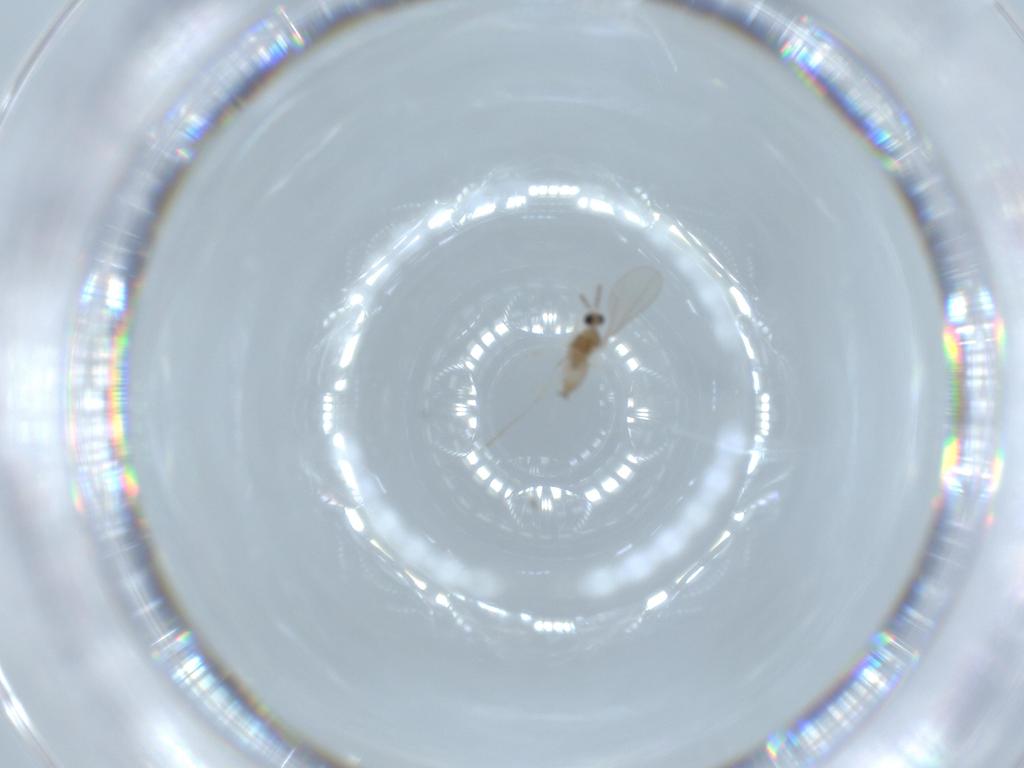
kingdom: Animalia
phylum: Arthropoda
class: Insecta
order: Diptera
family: Cecidomyiidae
